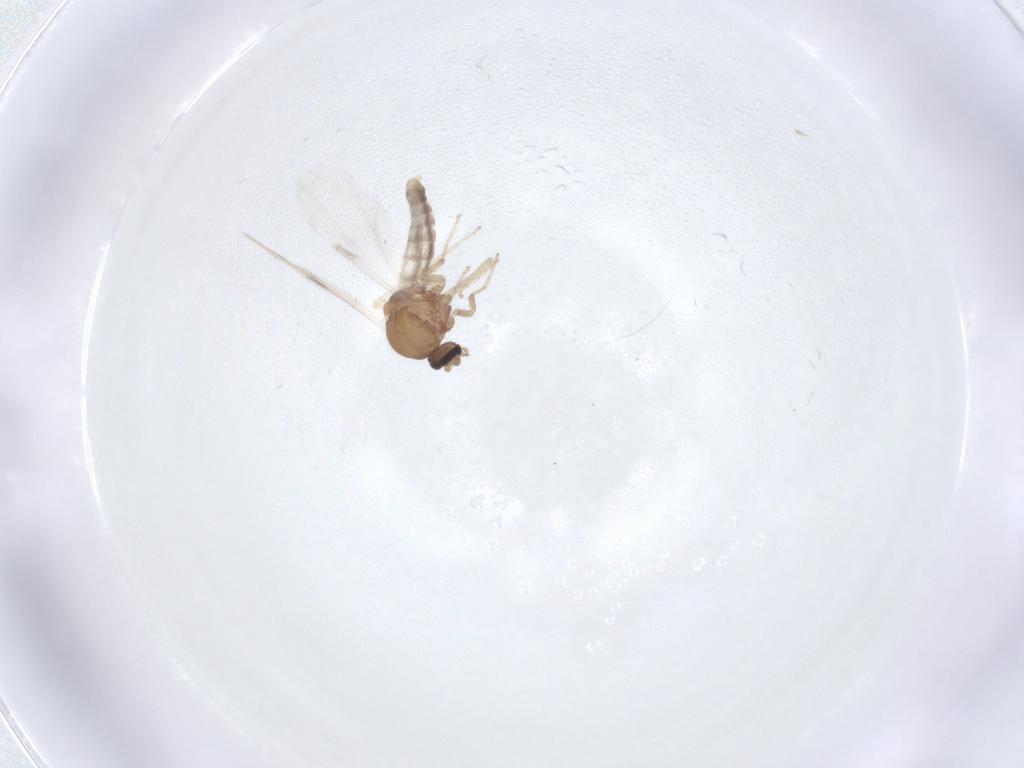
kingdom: Animalia
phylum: Arthropoda
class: Insecta
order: Diptera
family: Ceratopogonidae
